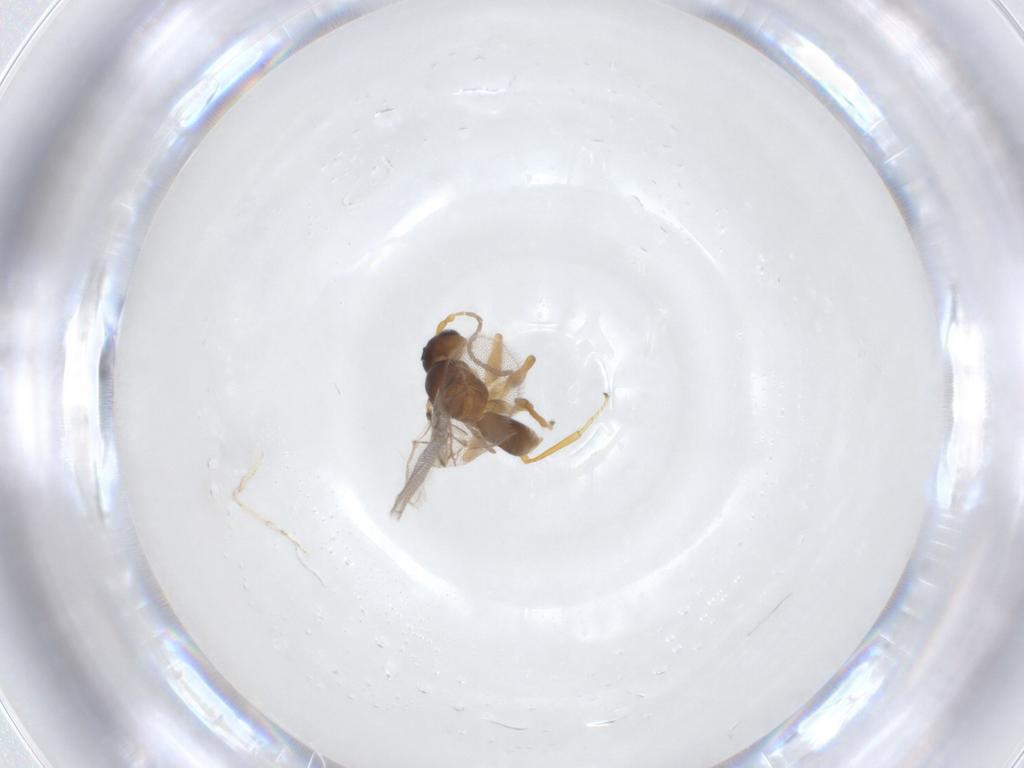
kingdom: Animalia
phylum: Arthropoda
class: Insecta
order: Hymenoptera
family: Cynipidae
